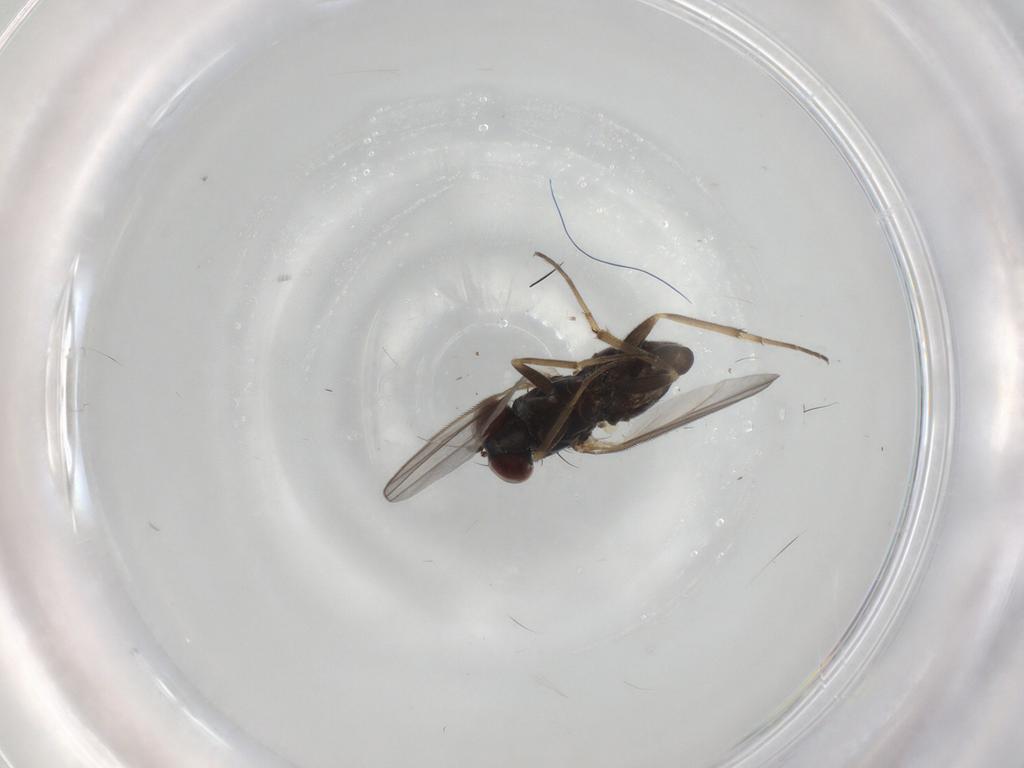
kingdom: Animalia
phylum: Arthropoda
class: Insecta
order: Diptera
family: Dolichopodidae
